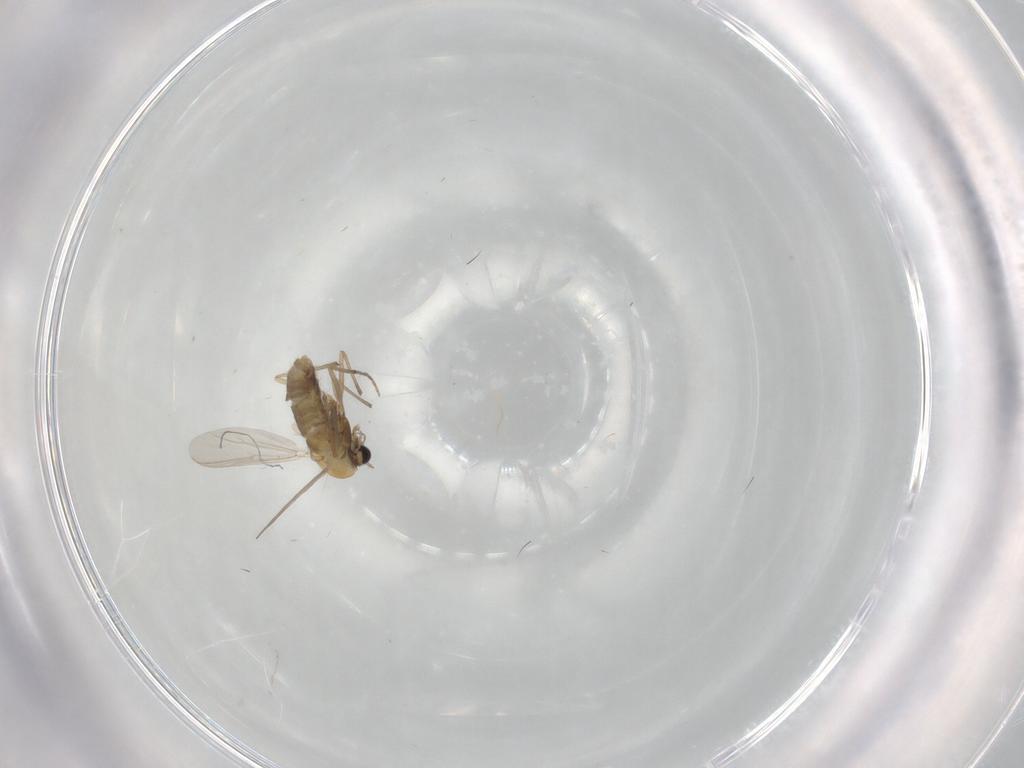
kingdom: Animalia
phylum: Arthropoda
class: Insecta
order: Diptera
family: Chironomidae
